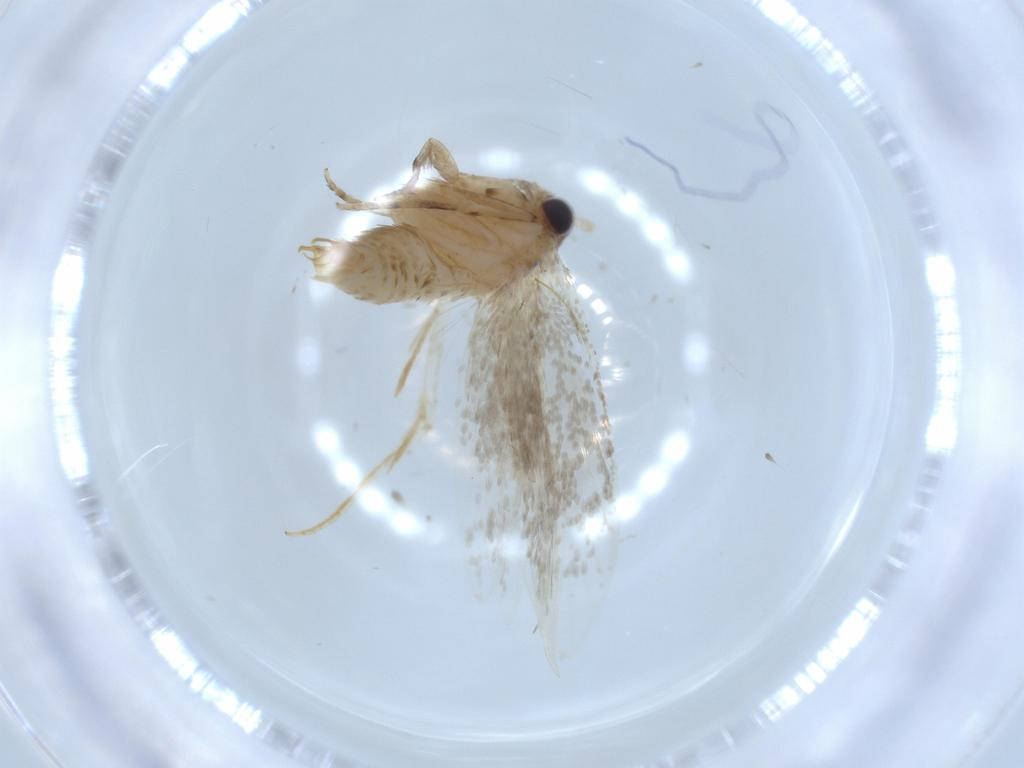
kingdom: Animalia
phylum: Arthropoda
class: Insecta
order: Lepidoptera
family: Tineidae
